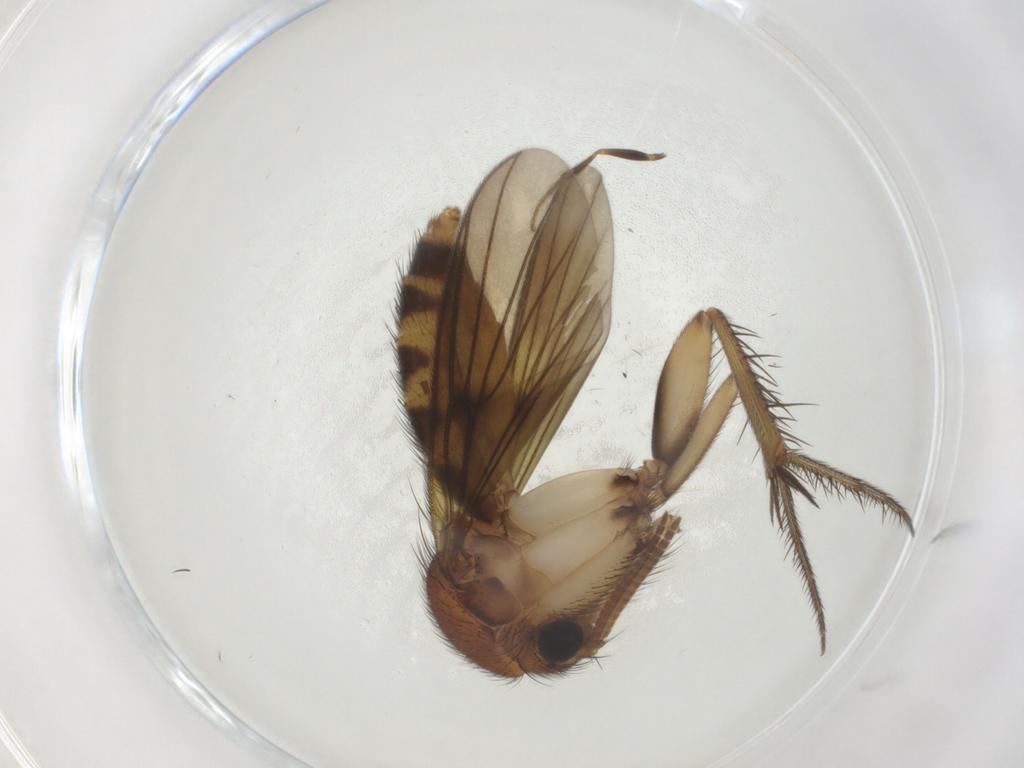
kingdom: Animalia
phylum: Arthropoda
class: Insecta
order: Diptera
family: Mycetophilidae
